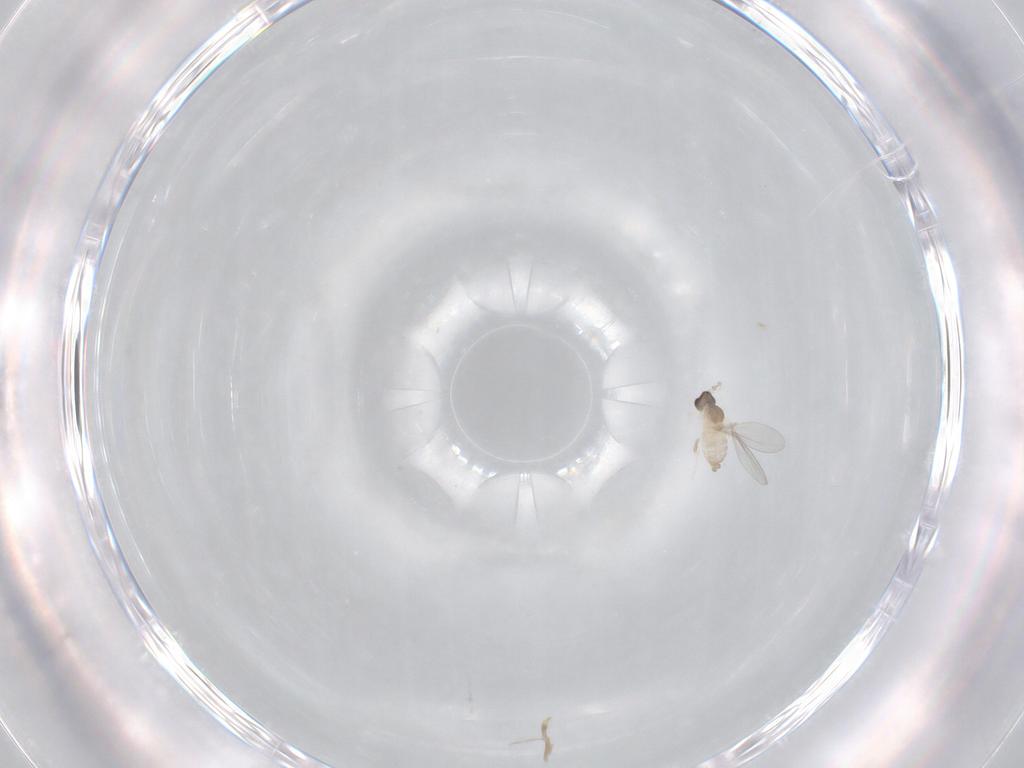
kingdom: Animalia
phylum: Arthropoda
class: Insecta
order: Diptera
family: Cecidomyiidae
